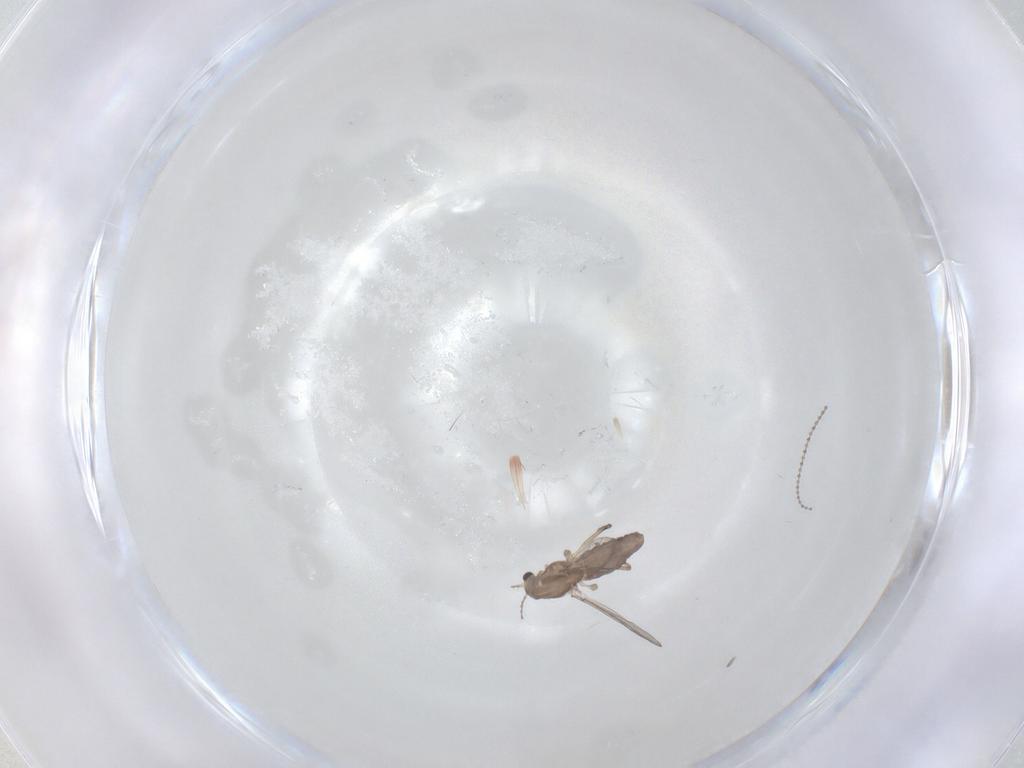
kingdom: Animalia
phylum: Arthropoda
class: Insecta
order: Diptera
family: Chironomidae
